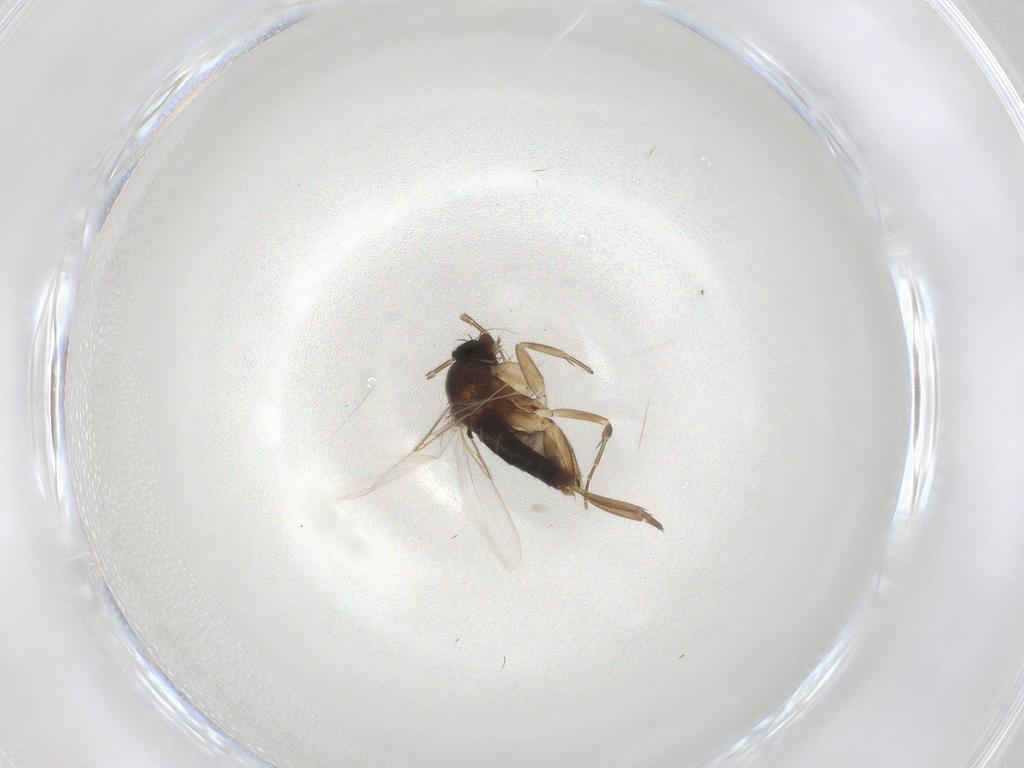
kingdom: Animalia
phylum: Arthropoda
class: Insecta
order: Diptera
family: Phoridae
